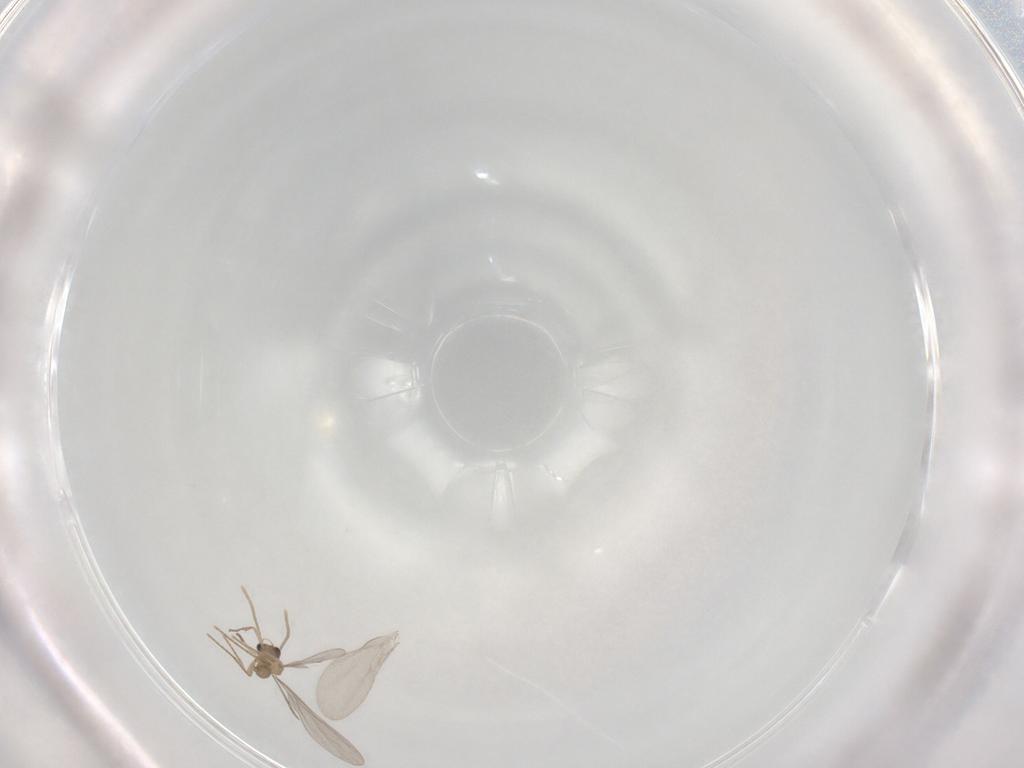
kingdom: Animalia
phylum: Arthropoda
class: Insecta
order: Hymenoptera
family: Formicidae
